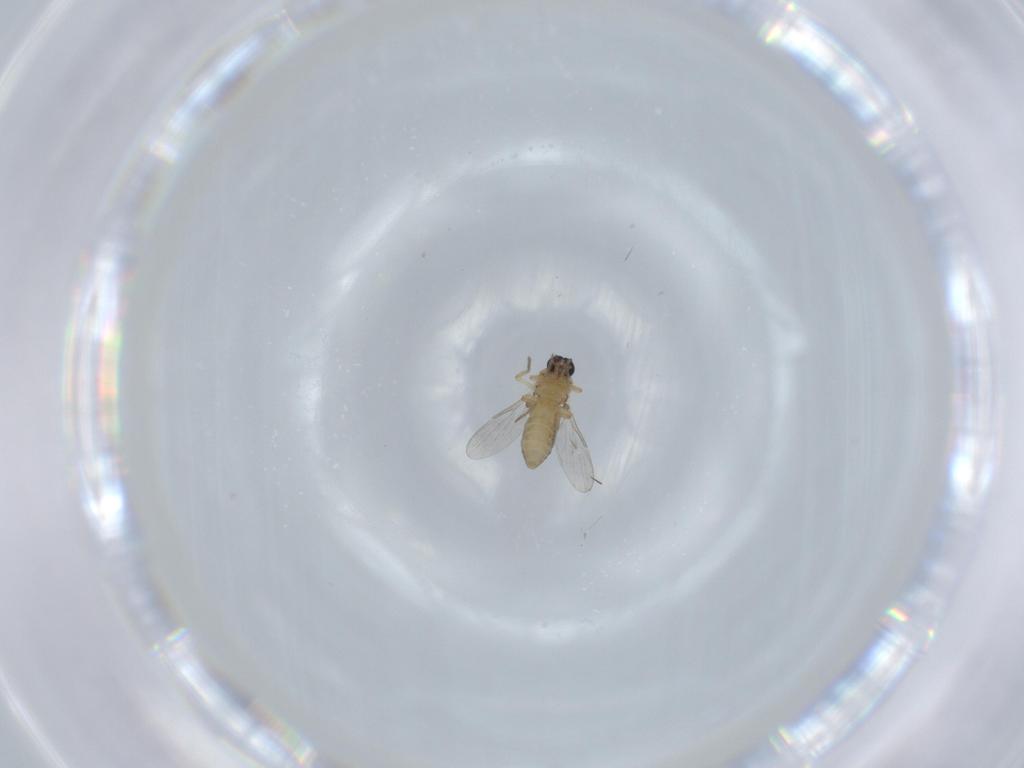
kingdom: Animalia
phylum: Arthropoda
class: Insecta
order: Diptera
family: Ceratopogonidae
